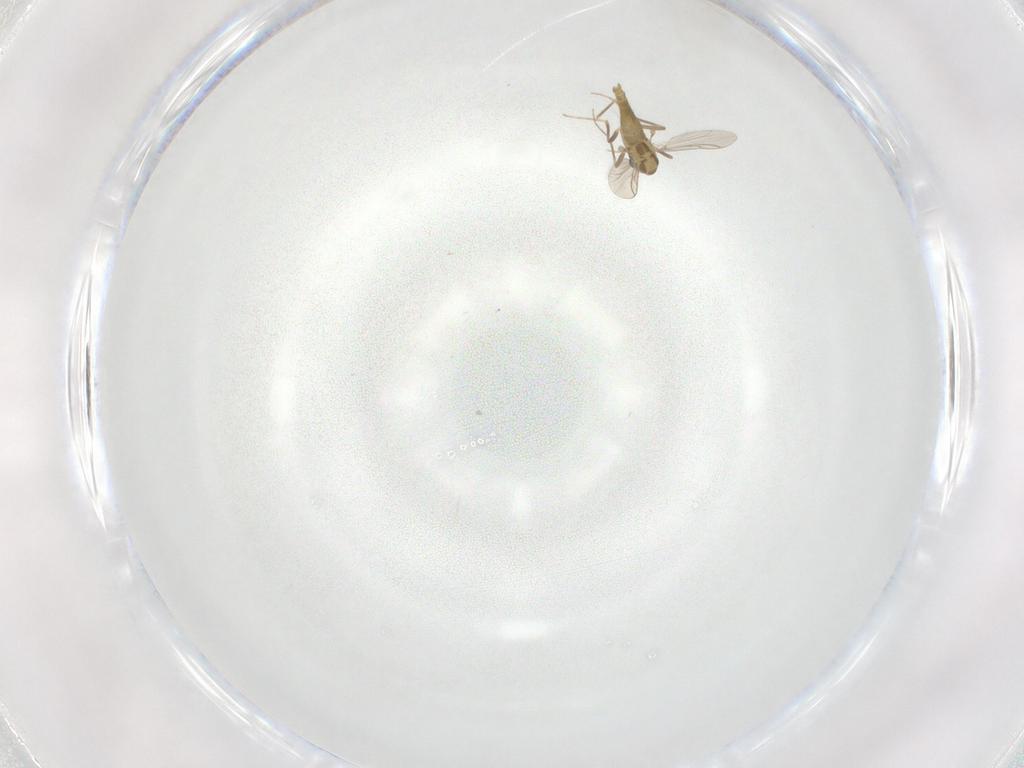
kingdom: Animalia
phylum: Arthropoda
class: Insecta
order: Diptera
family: Chironomidae
